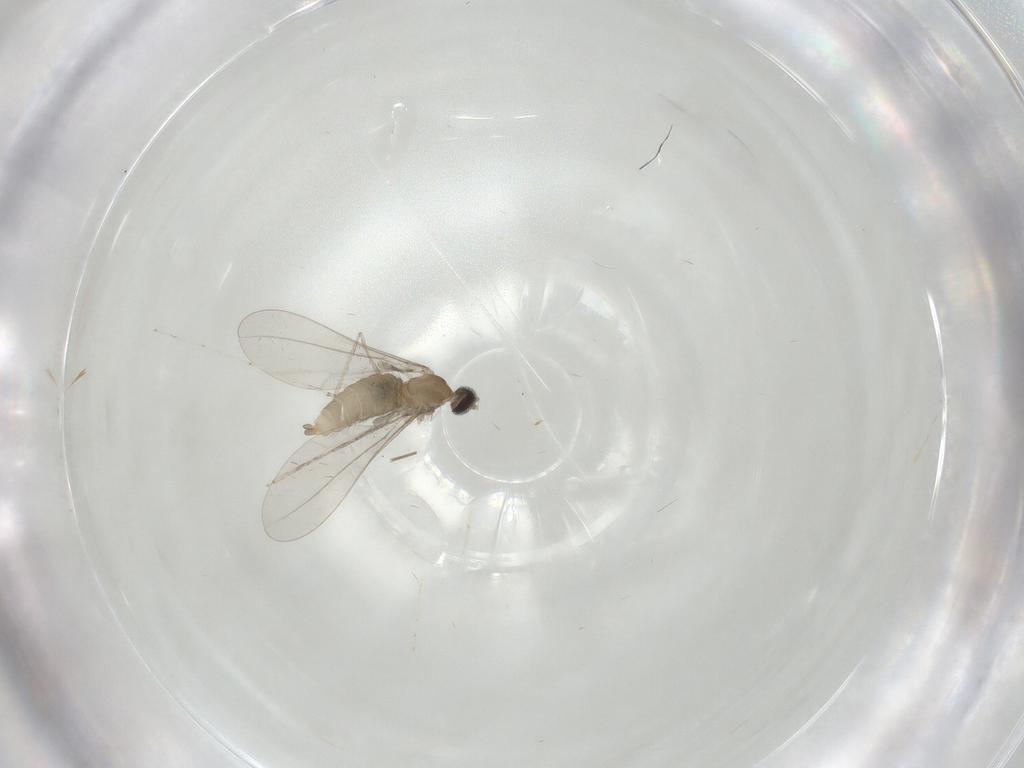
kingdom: Animalia
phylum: Arthropoda
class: Insecta
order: Diptera
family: Cecidomyiidae
